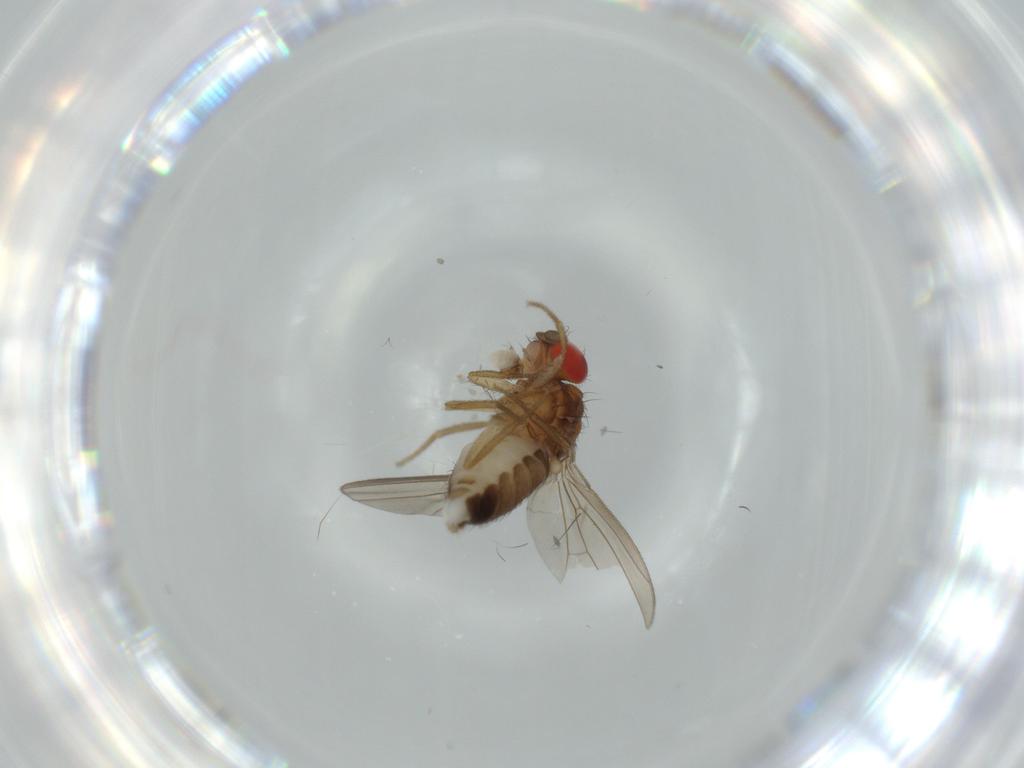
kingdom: Animalia
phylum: Arthropoda
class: Insecta
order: Diptera
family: Drosophilidae
